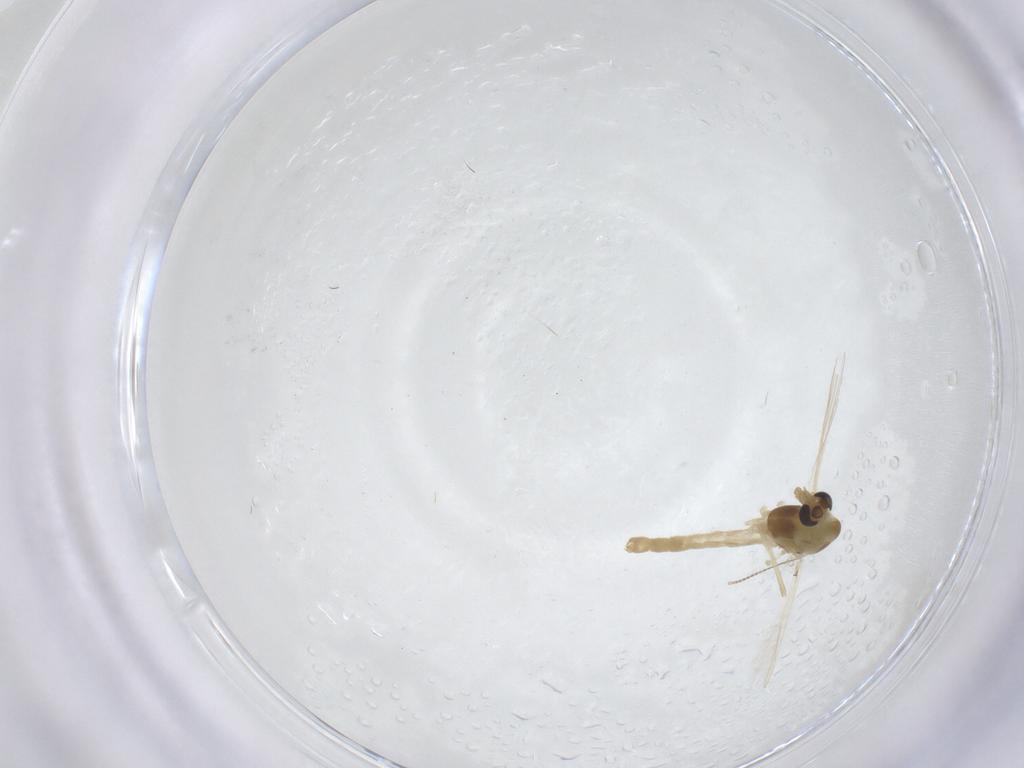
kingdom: Animalia
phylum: Arthropoda
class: Insecta
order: Diptera
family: Chironomidae
